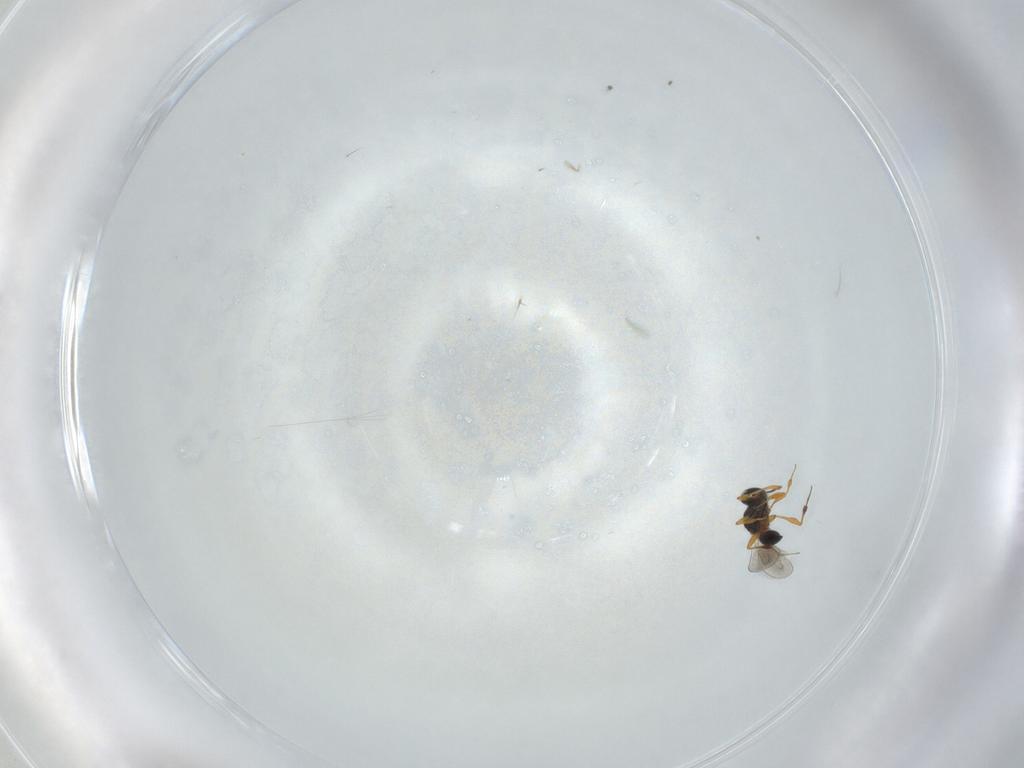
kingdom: Animalia
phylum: Arthropoda
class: Insecta
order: Hymenoptera
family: Platygastridae
